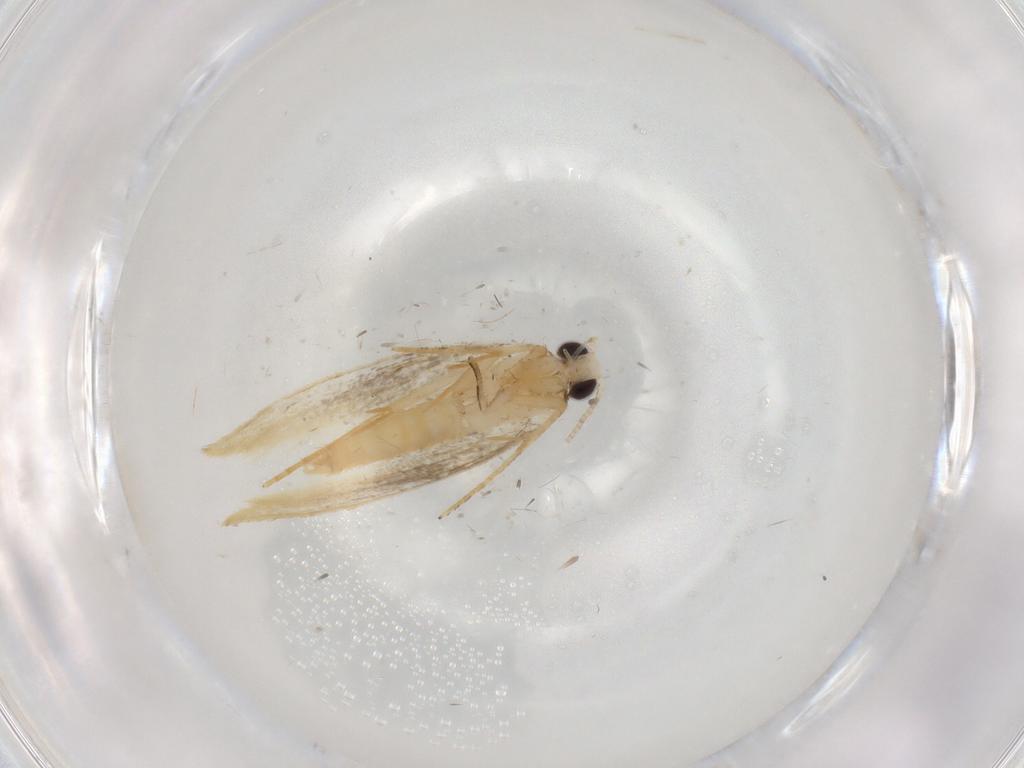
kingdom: Animalia
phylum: Arthropoda
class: Insecta
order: Lepidoptera
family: Tineidae
